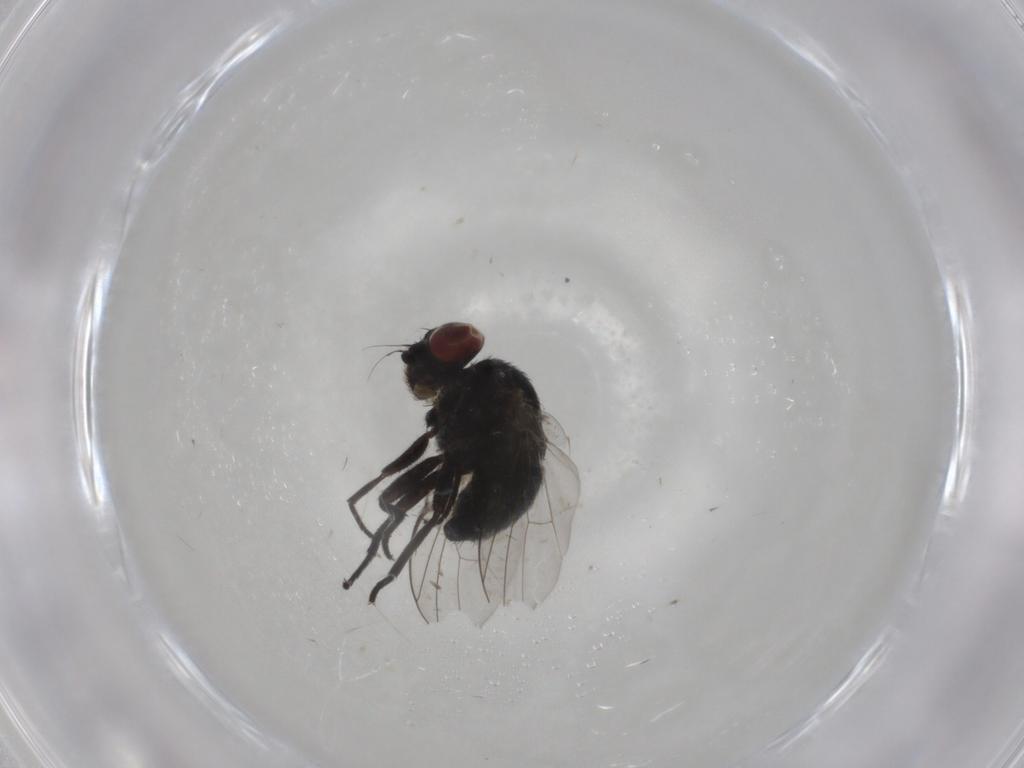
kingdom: Animalia
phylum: Arthropoda
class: Insecta
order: Diptera
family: Agromyzidae
